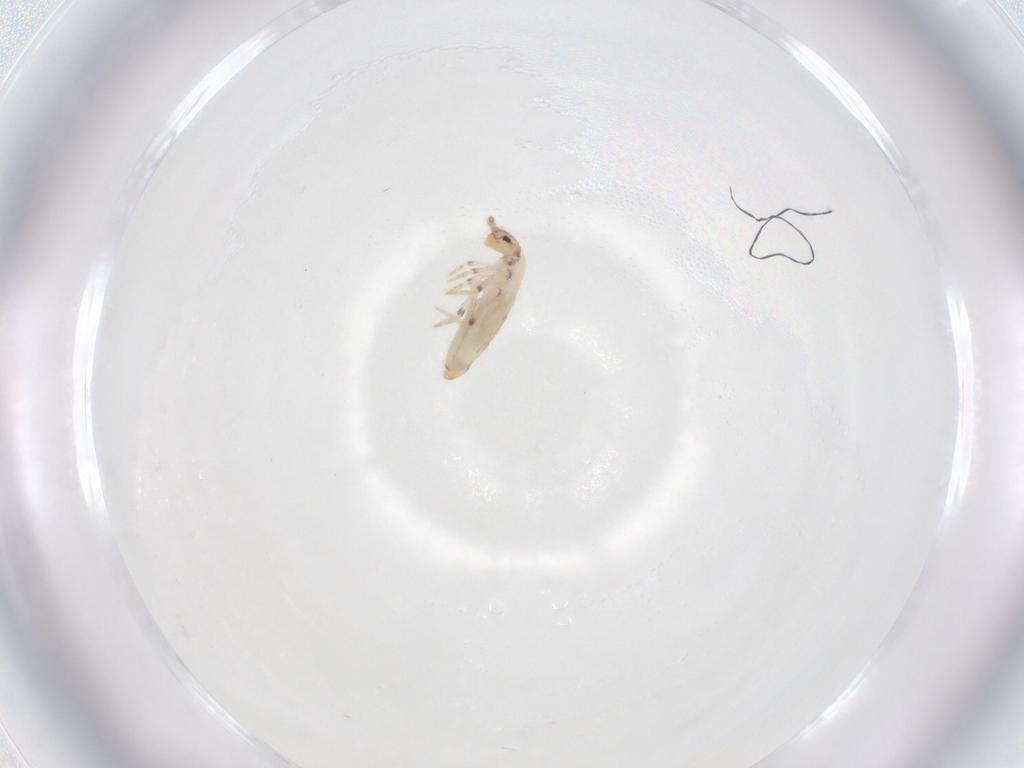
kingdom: Animalia
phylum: Arthropoda
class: Collembola
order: Entomobryomorpha
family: Entomobryidae
